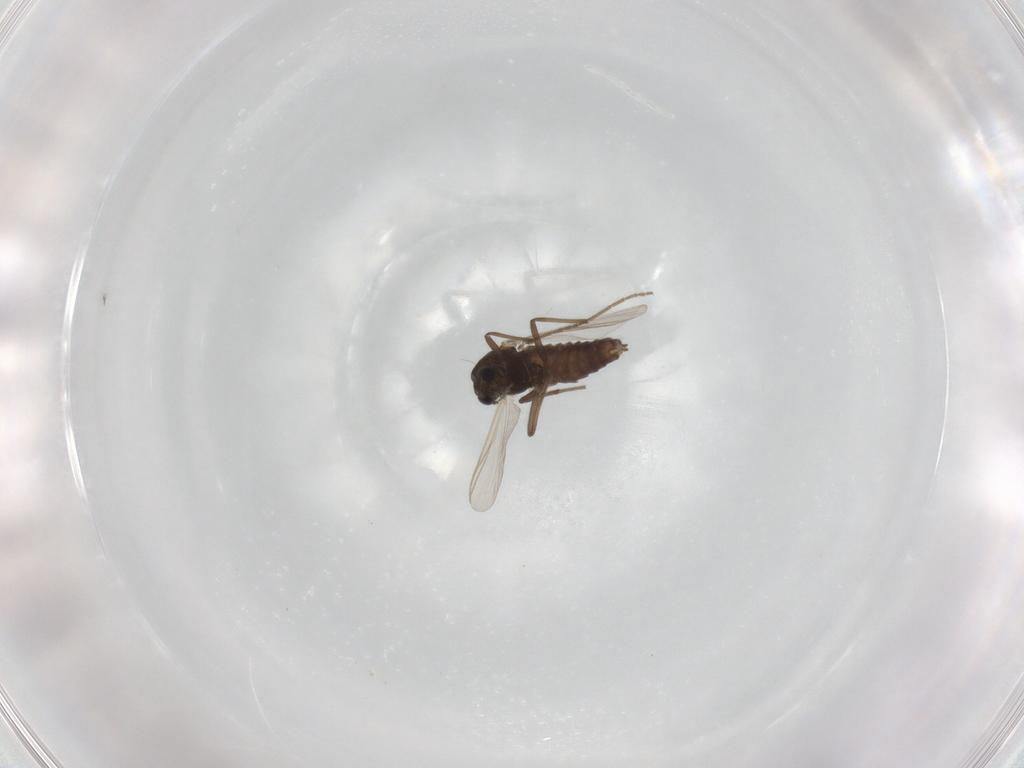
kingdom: Animalia
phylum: Arthropoda
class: Insecta
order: Diptera
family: Chironomidae
